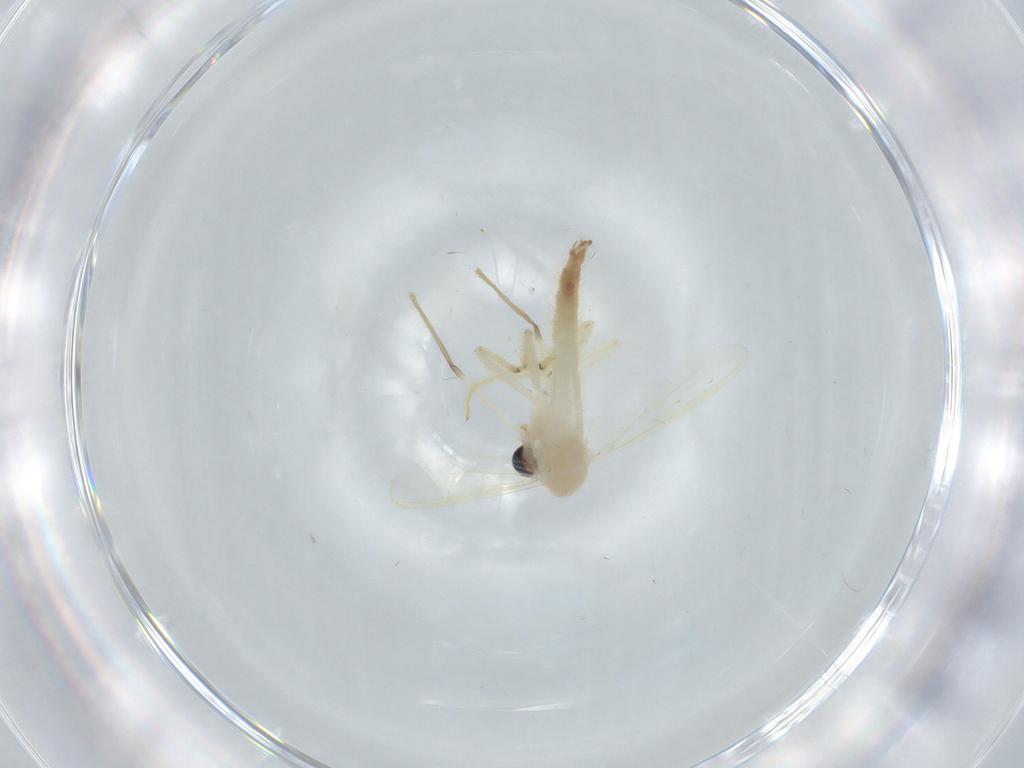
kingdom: Animalia
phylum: Arthropoda
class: Insecta
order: Diptera
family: Chironomidae
